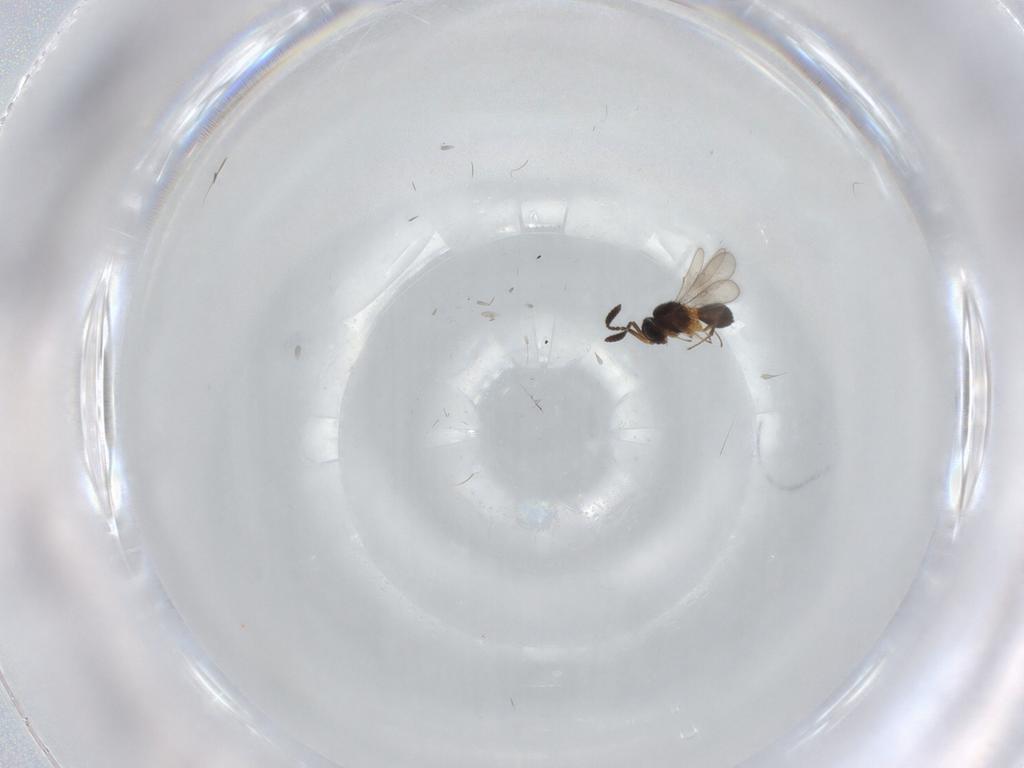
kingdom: Animalia
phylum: Arthropoda
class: Insecta
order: Hymenoptera
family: Scelionidae
